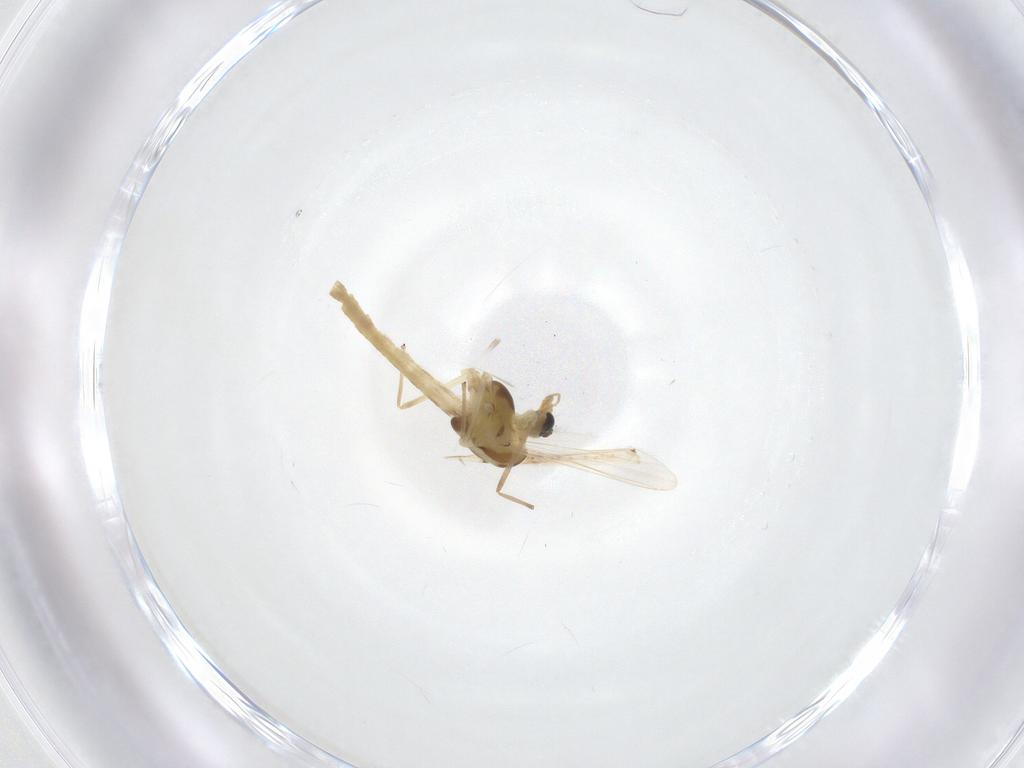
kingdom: Animalia
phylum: Arthropoda
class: Insecta
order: Diptera
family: Chironomidae
